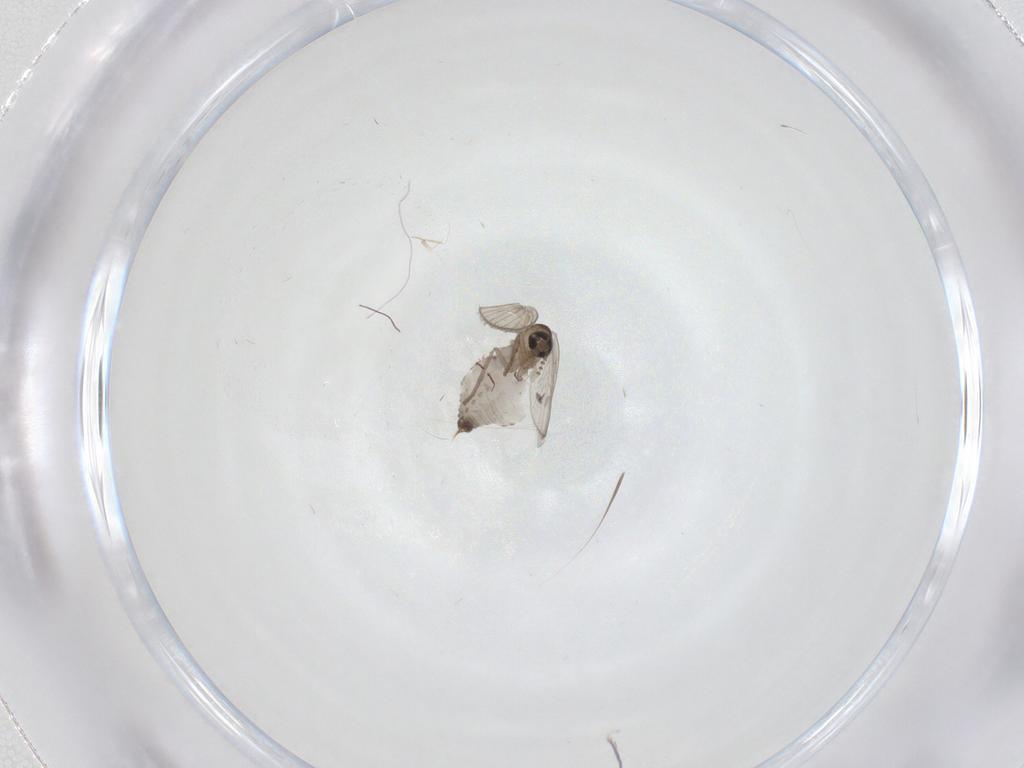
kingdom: Animalia
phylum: Arthropoda
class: Insecta
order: Diptera
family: Psychodidae
